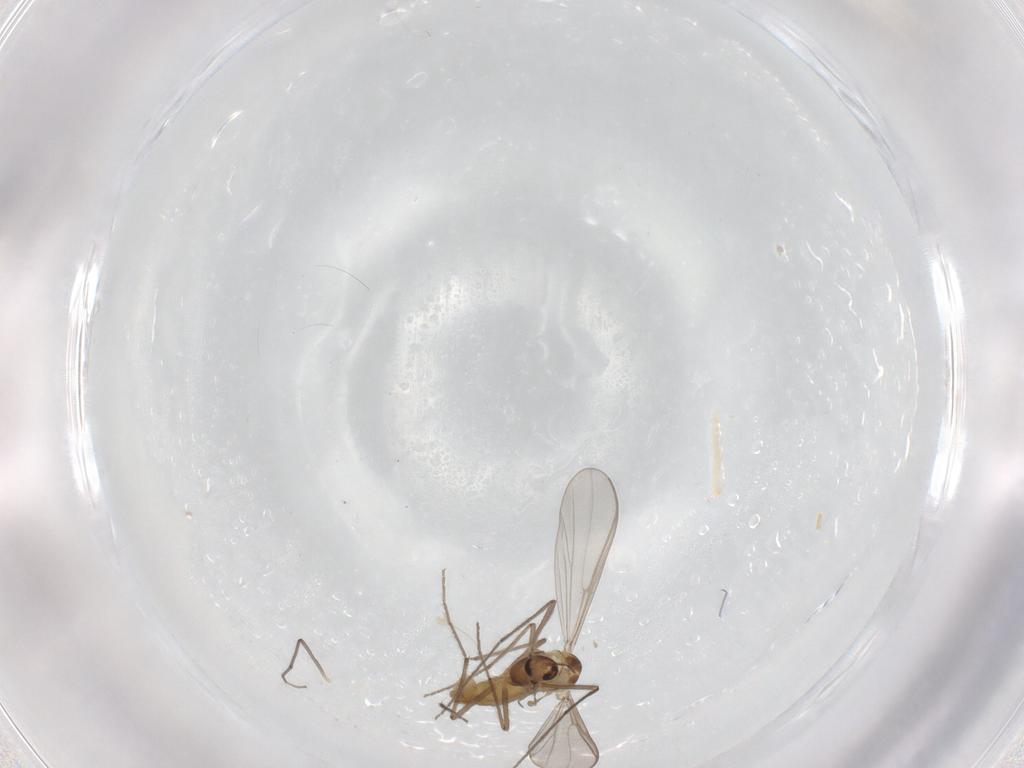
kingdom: Animalia
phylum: Arthropoda
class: Insecta
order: Diptera
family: Chironomidae
